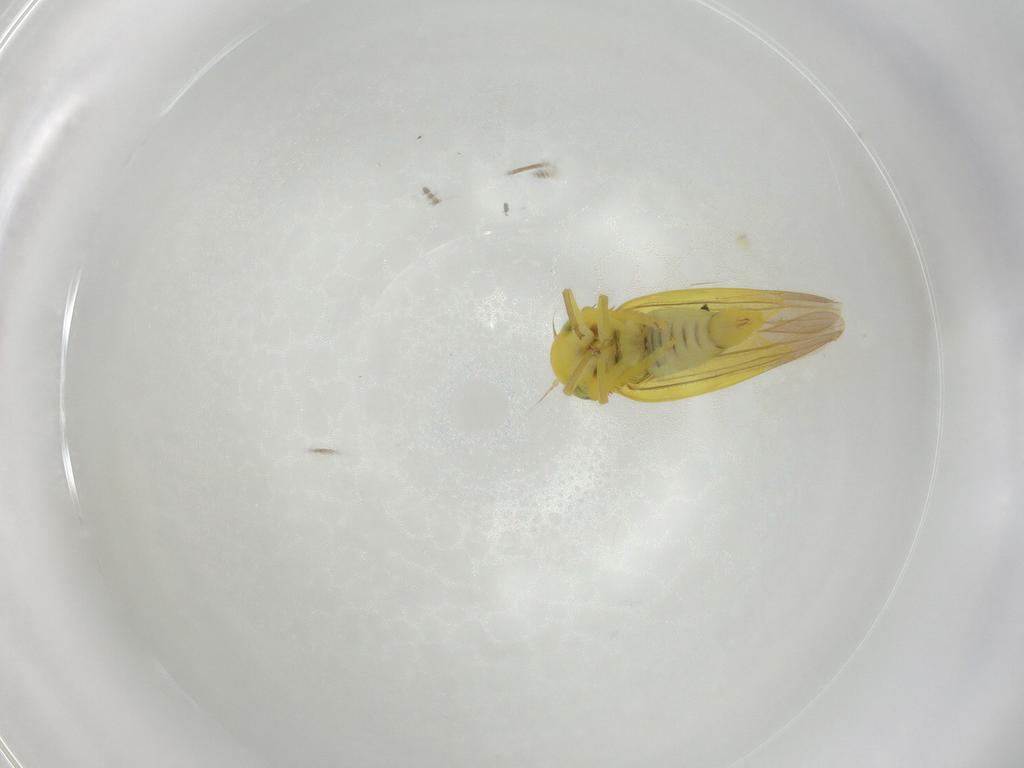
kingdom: Animalia
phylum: Arthropoda
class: Insecta
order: Hemiptera
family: Cicadellidae
